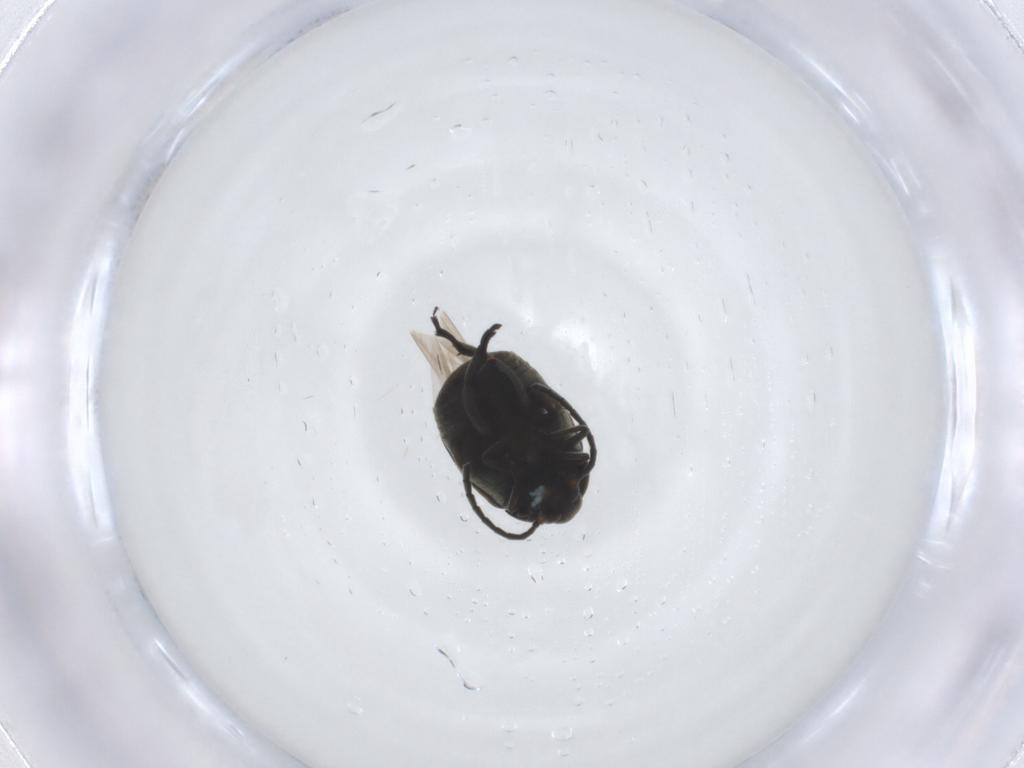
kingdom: Animalia
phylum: Arthropoda
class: Insecta
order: Coleoptera
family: Chrysomelidae
